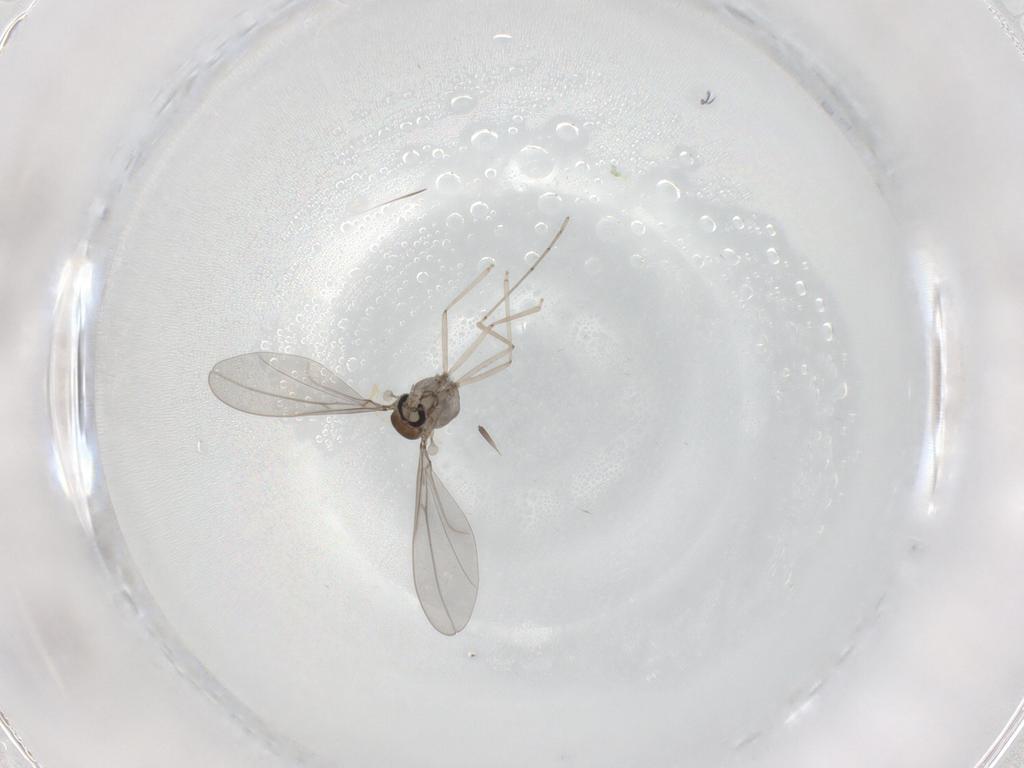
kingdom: Animalia
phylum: Arthropoda
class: Insecta
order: Diptera
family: Cecidomyiidae
